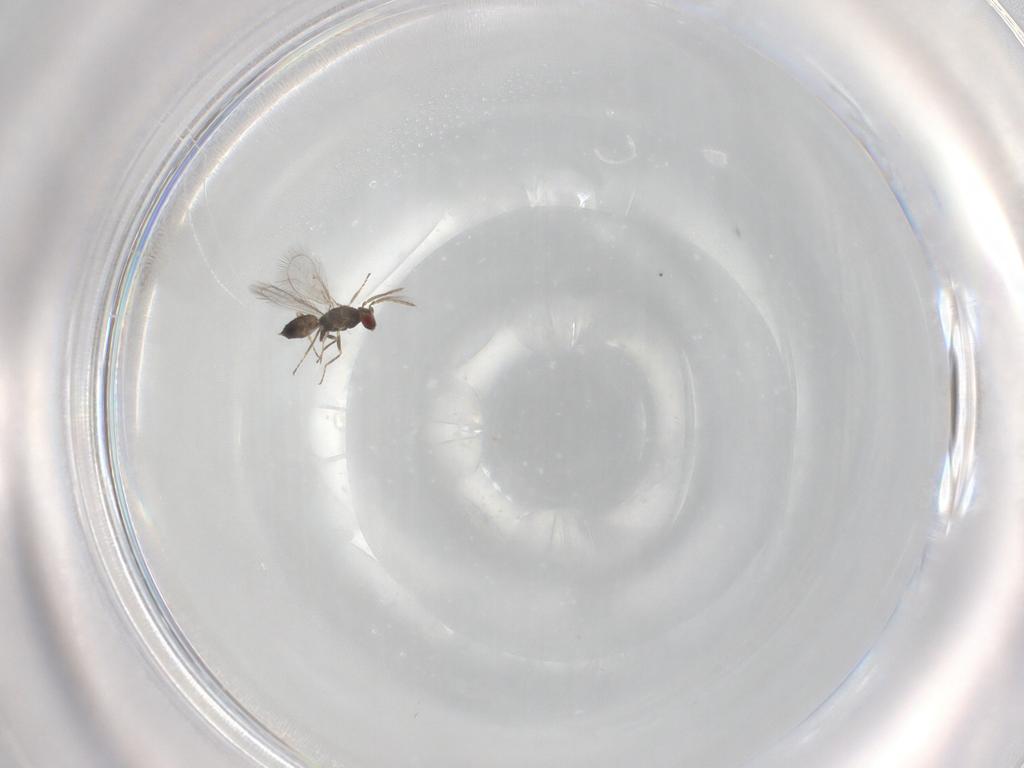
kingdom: Animalia
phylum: Arthropoda
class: Insecta
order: Hymenoptera
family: Eulophidae
